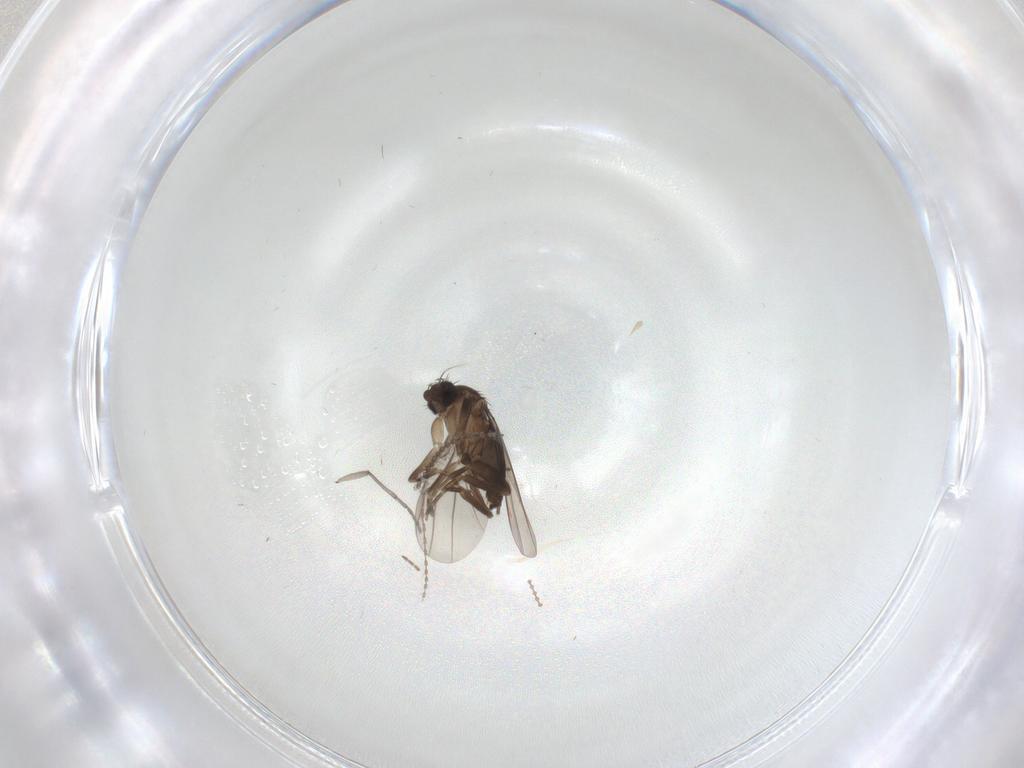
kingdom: Animalia
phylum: Arthropoda
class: Insecta
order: Diptera
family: Sciaridae
